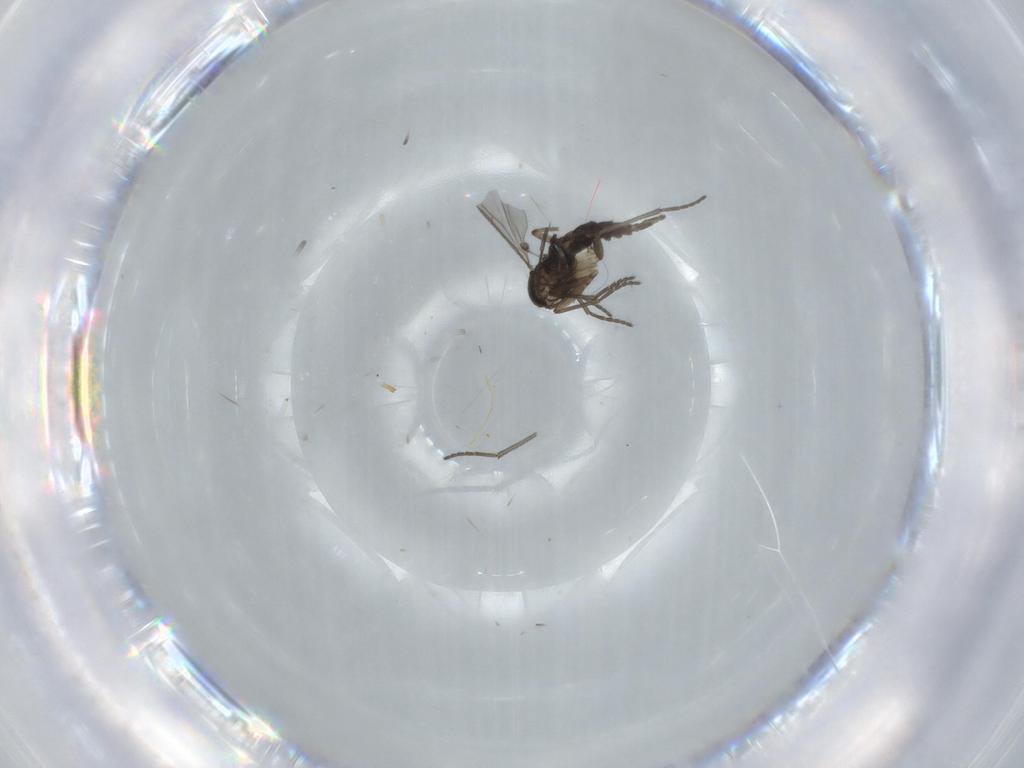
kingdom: Animalia
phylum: Arthropoda
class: Insecta
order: Diptera
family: Sciaridae
